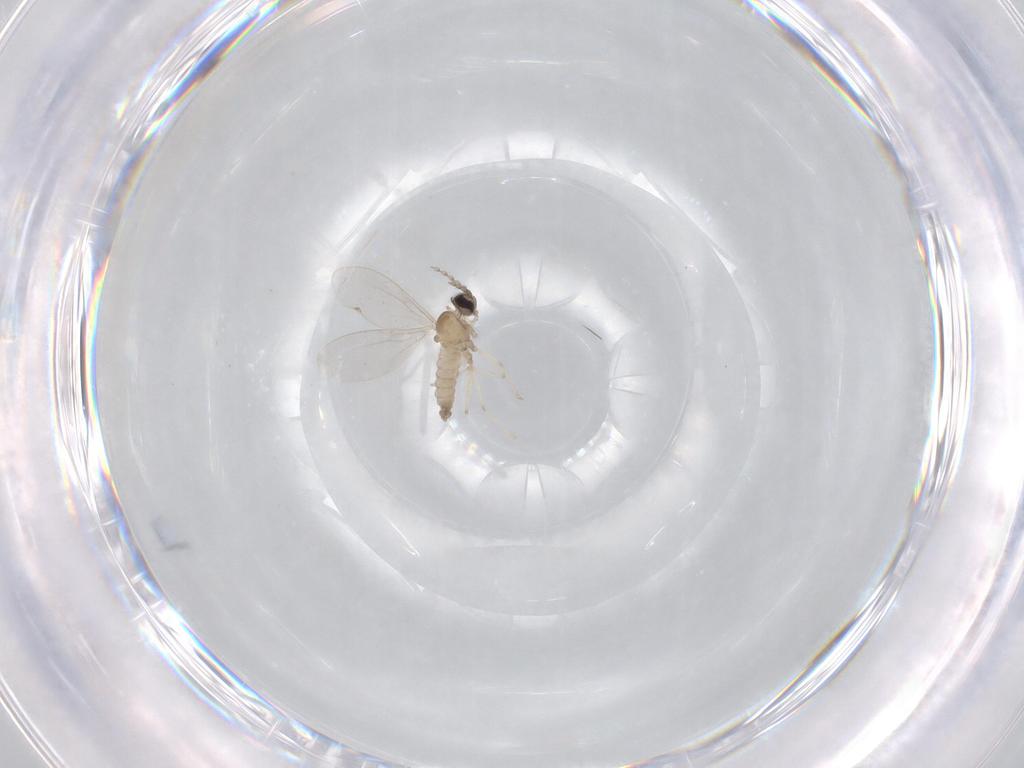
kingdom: Animalia
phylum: Arthropoda
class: Insecta
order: Diptera
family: Cecidomyiidae
